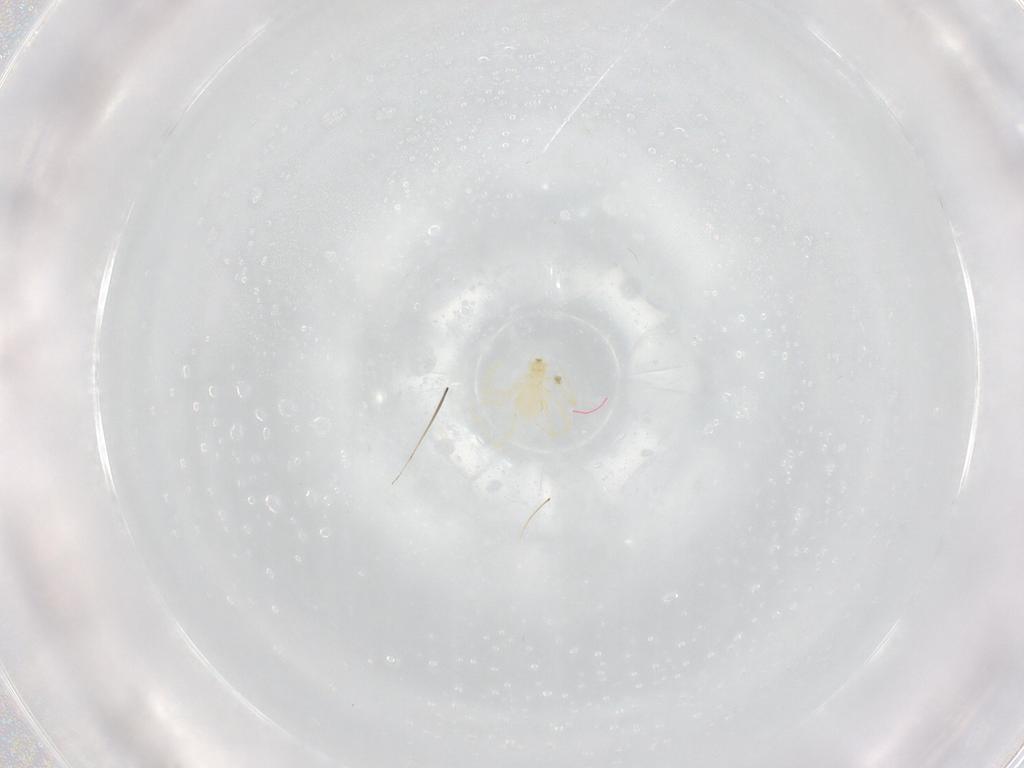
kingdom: Animalia
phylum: Arthropoda
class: Arachnida
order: Trombidiformes
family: Erythraeidae
